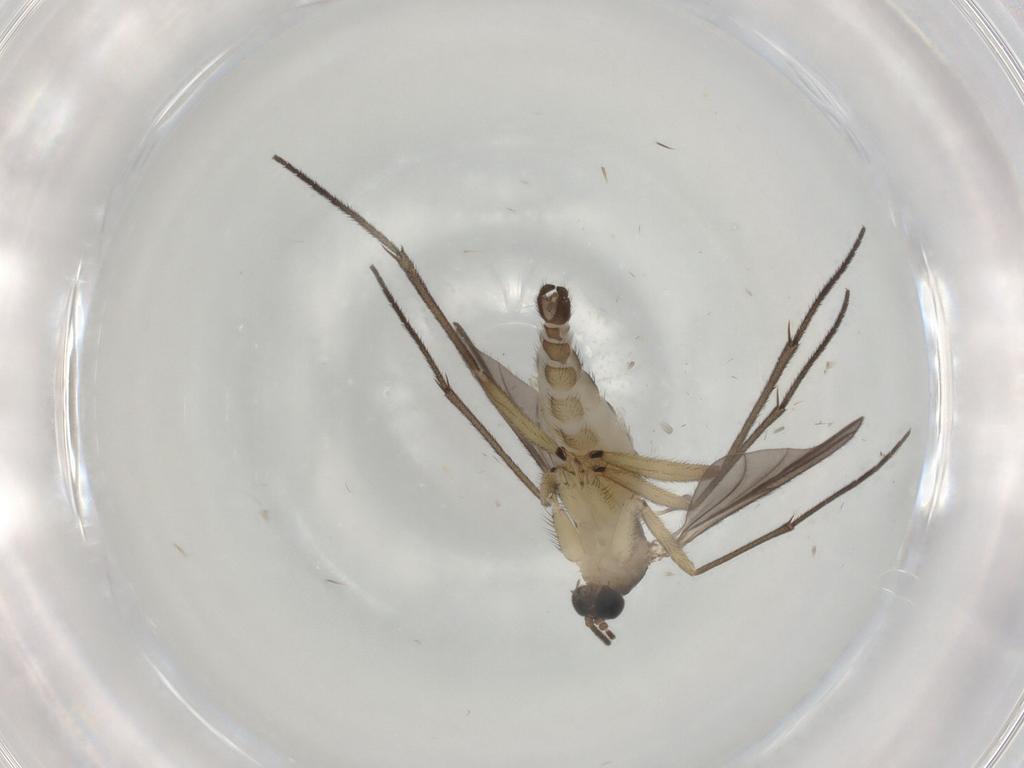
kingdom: Animalia
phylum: Arthropoda
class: Insecta
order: Diptera
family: Sciaridae
